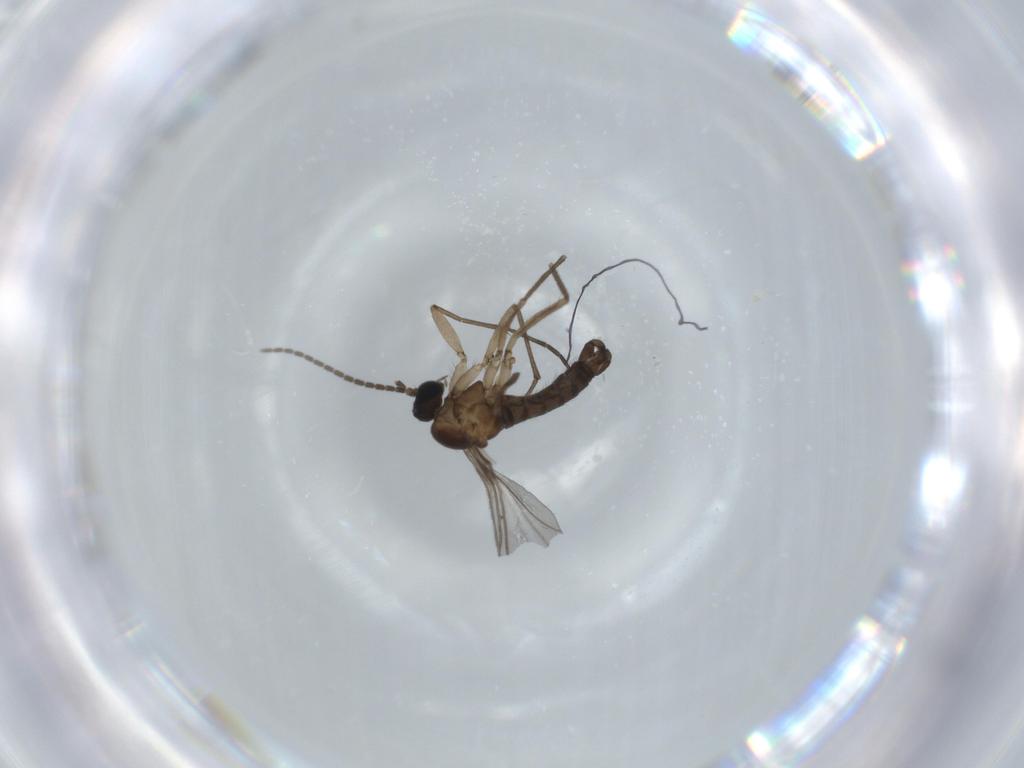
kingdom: Animalia
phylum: Arthropoda
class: Insecta
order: Diptera
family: Sciaridae
